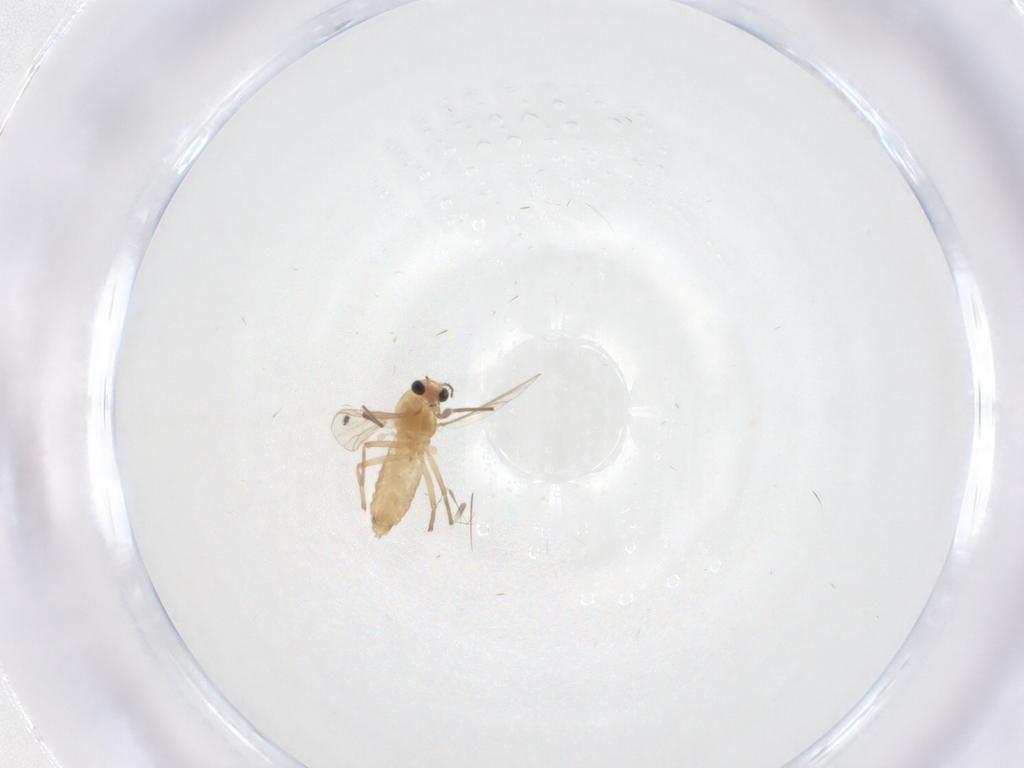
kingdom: Animalia
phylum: Arthropoda
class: Insecta
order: Diptera
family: Chironomidae
